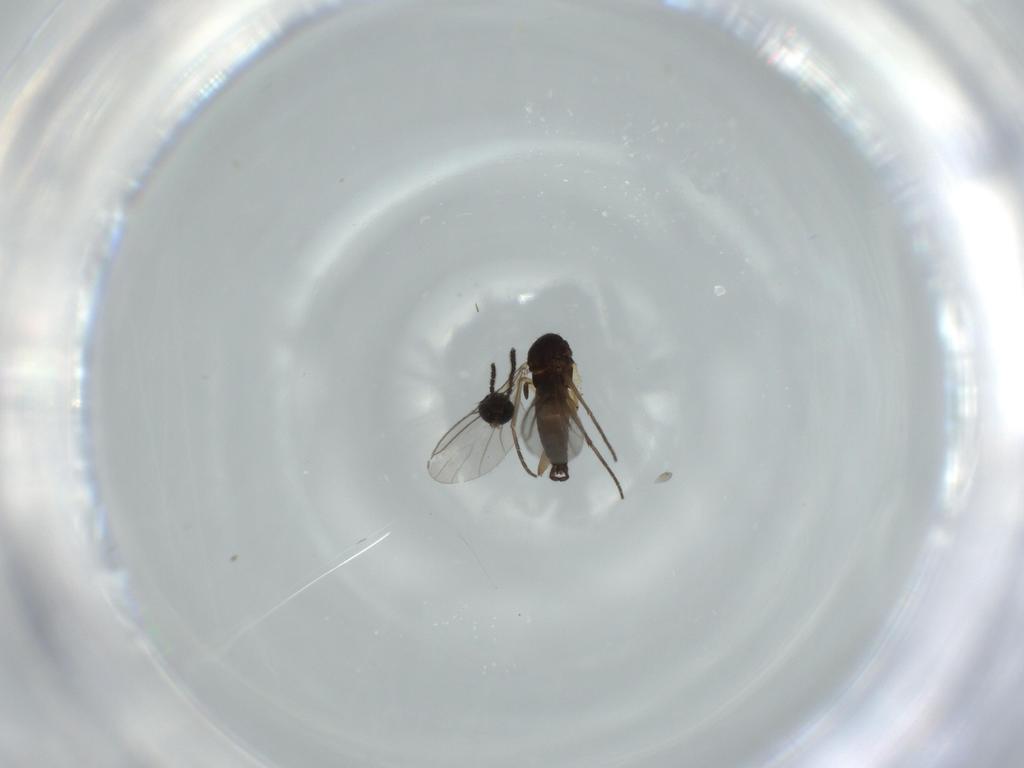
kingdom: Animalia
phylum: Arthropoda
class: Insecta
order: Diptera
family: Sciaridae
